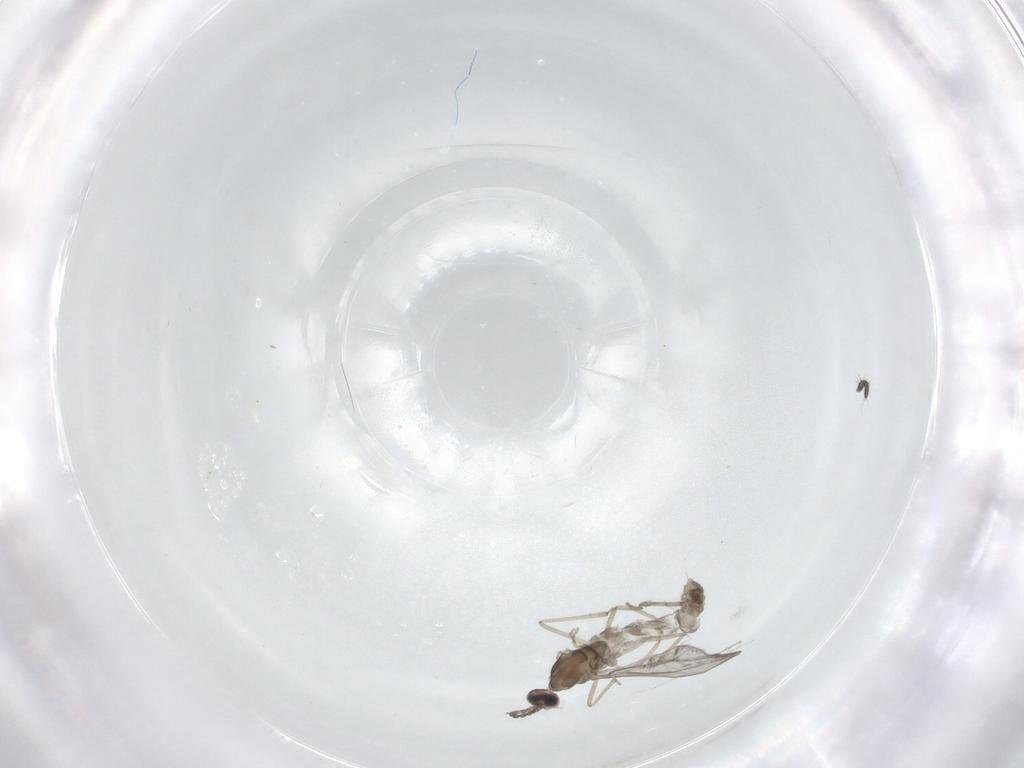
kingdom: Animalia
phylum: Arthropoda
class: Insecta
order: Diptera
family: Cecidomyiidae
